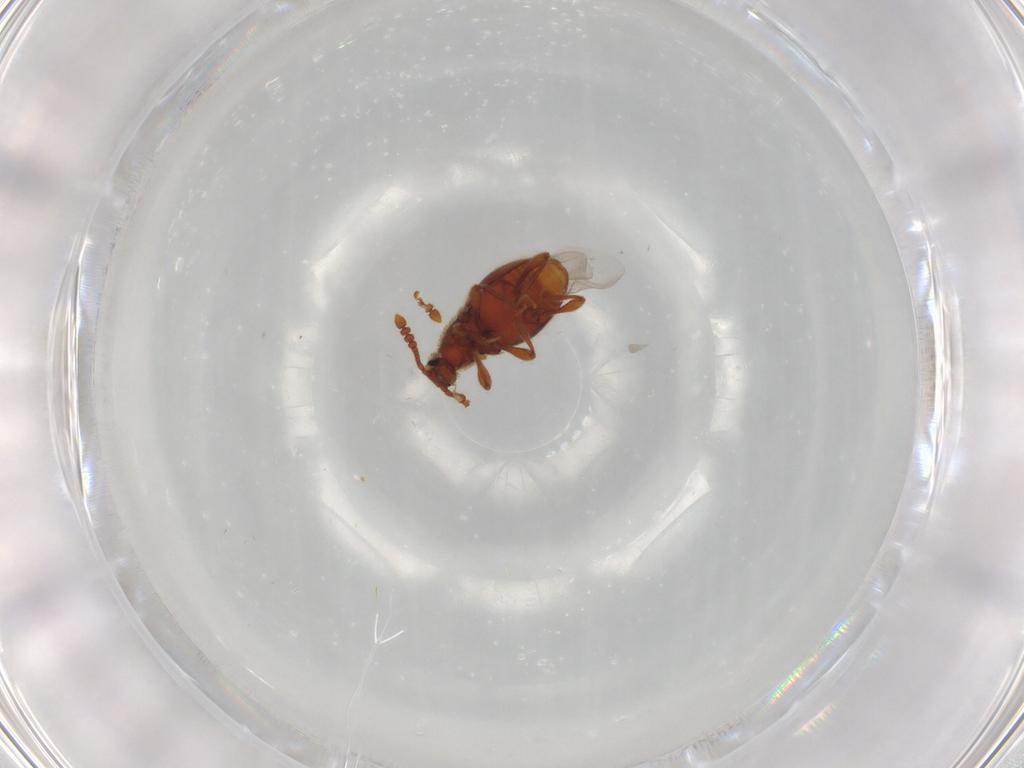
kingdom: Animalia
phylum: Arthropoda
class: Insecta
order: Coleoptera
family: Staphylinidae
